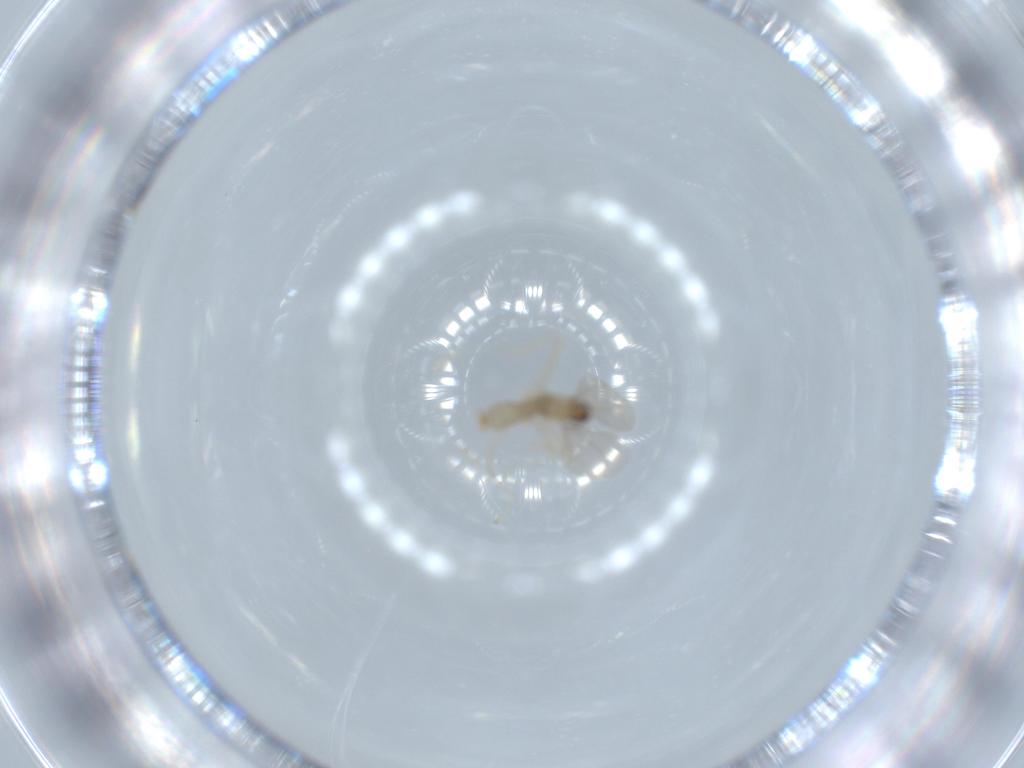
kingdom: Animalia
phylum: Arthropoda
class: Insecta
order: Diptera
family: Cecidomyiidae
